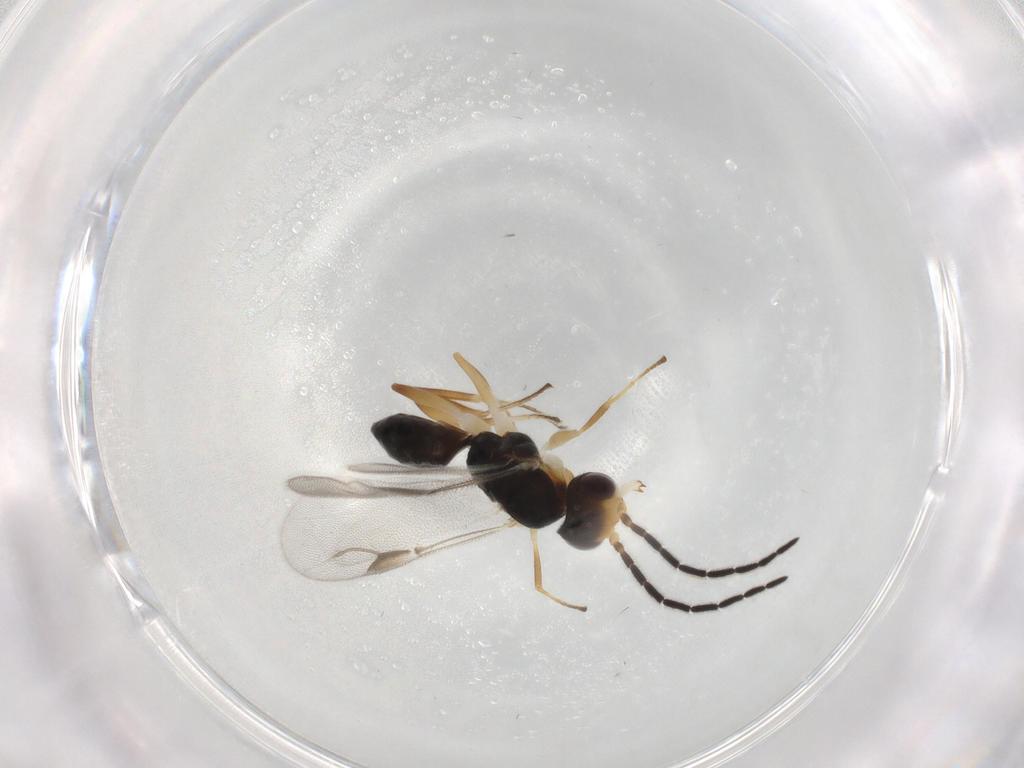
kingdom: Animalia
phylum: Arthropoda
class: Insecta
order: Hymenoptera
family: Dryinidae
